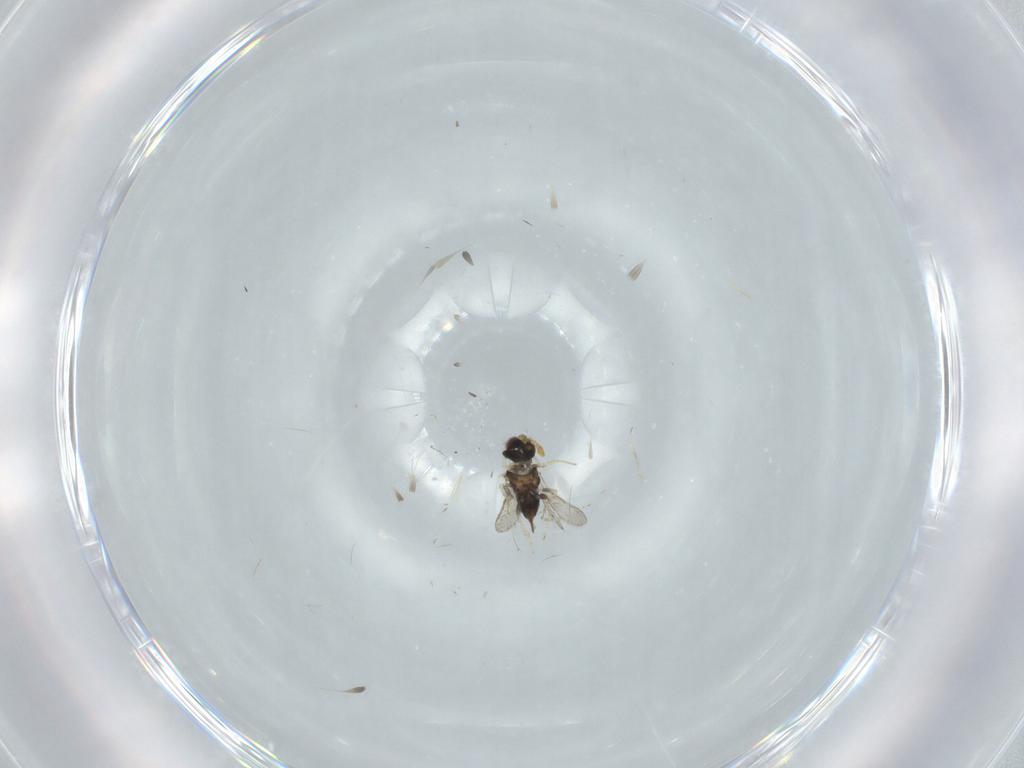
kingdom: Animalia
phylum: Arthropoda
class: Insecta
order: Hymenoptera
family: Aphelinidae
